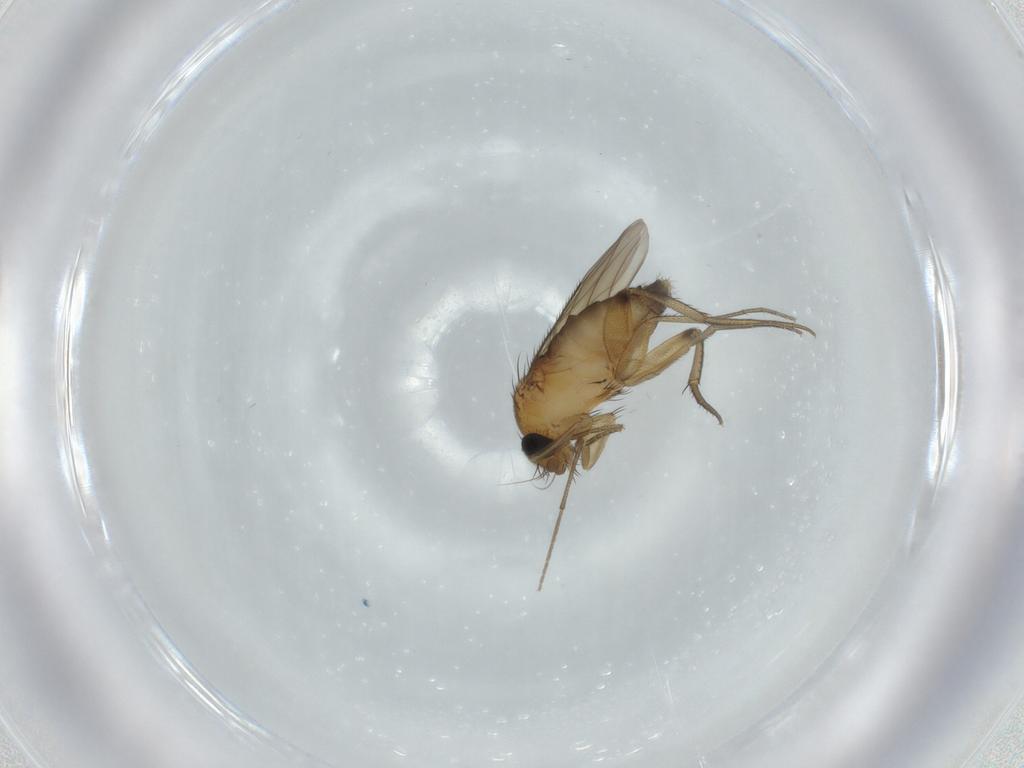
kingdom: Animalia
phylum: Arthropoda
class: Insecta
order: Diptera
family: Phoridae
